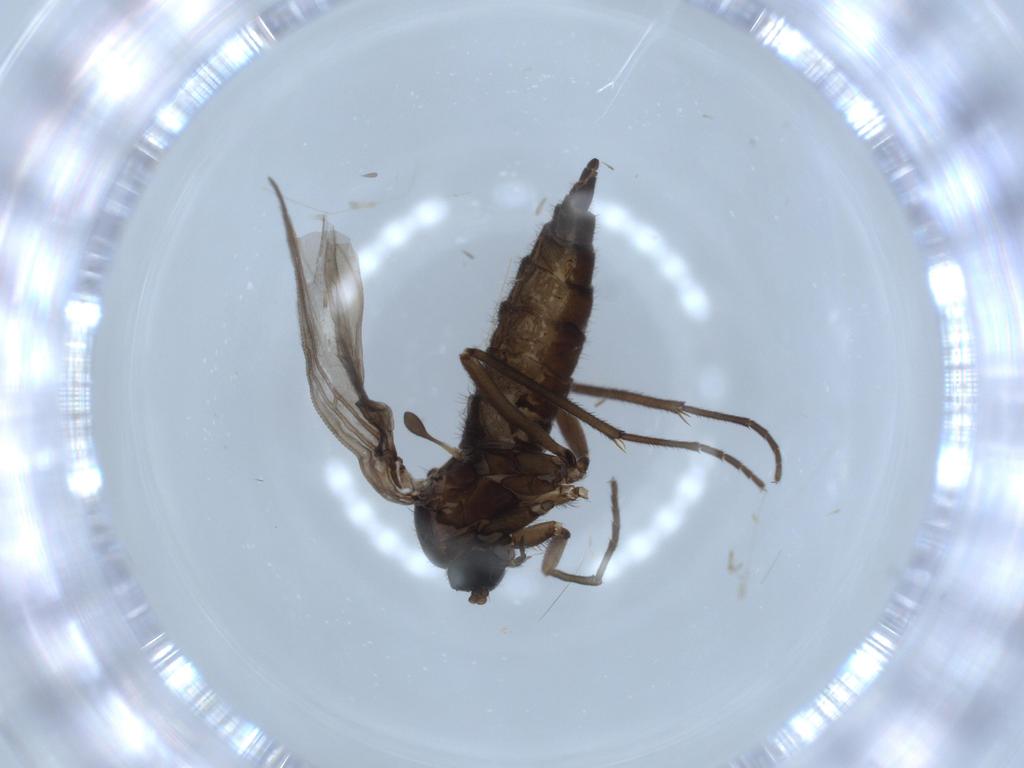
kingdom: Animalia
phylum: Arthropoda
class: Insecta
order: Diptera
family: Sciaridae
